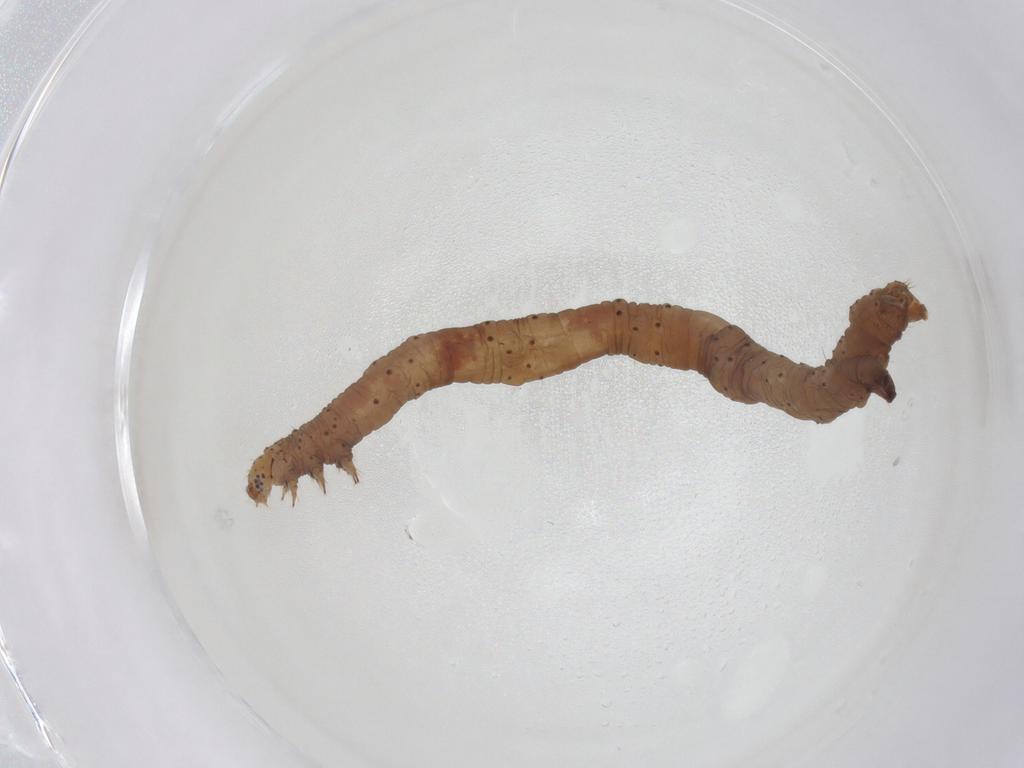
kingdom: Animalia
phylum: Arthropoda
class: Insecta
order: Lepidoptera
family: Geometridae
